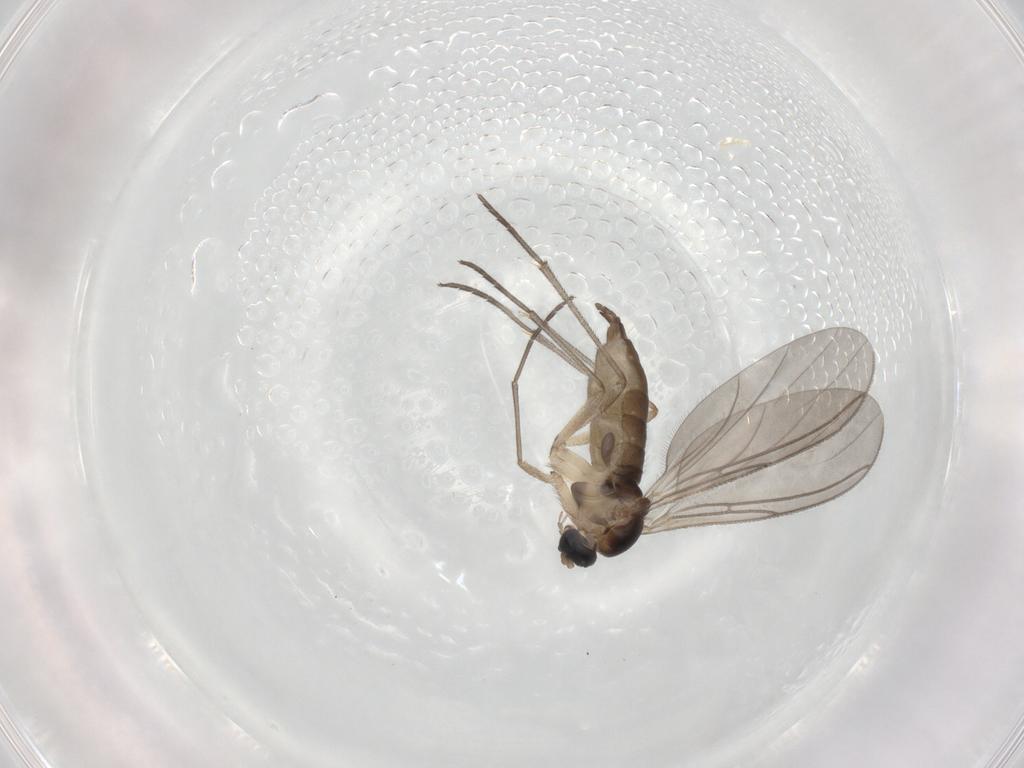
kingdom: Animalia
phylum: Arthropoda
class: Insecta
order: Diptera
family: Sciaridae
